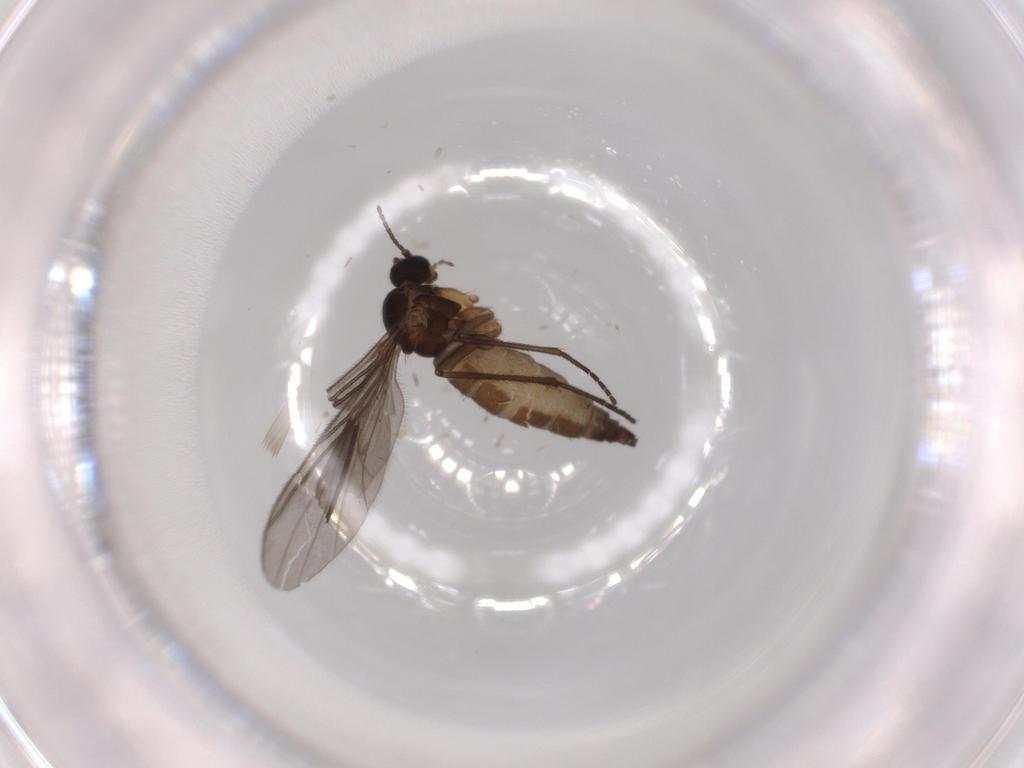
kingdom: Animalia
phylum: Arthropoda
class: Insecta
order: Diptera
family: Sciaridae
